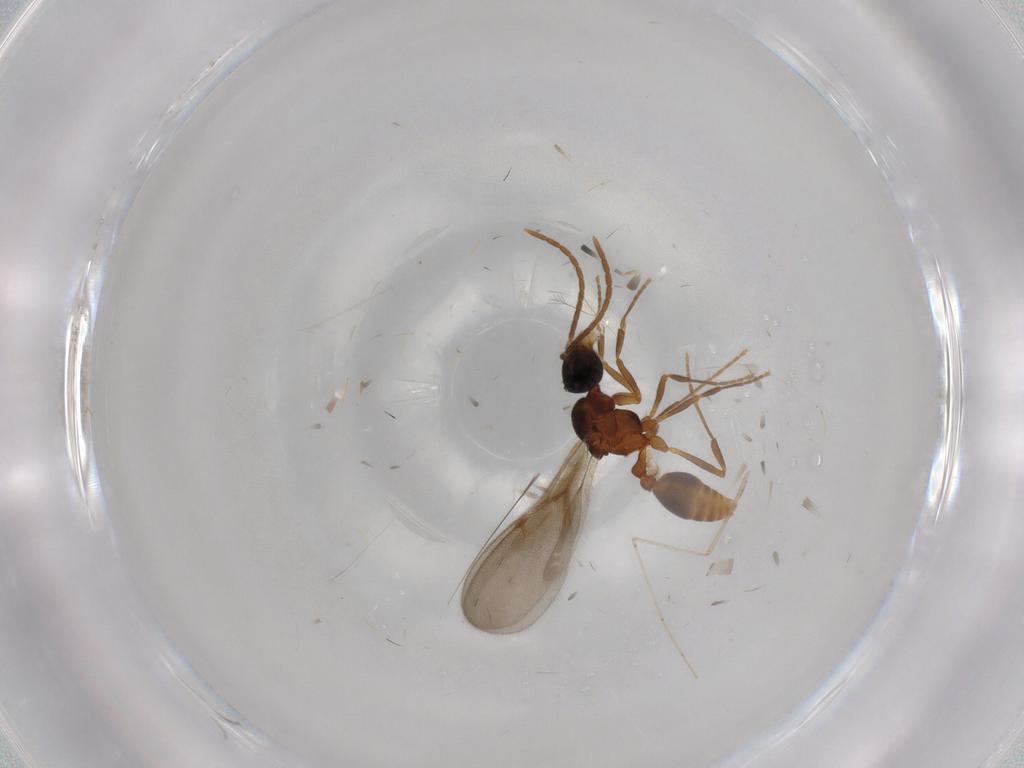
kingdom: Animalia
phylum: Arthropoda
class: Insecta
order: Hymenoptera
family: Formicidae
